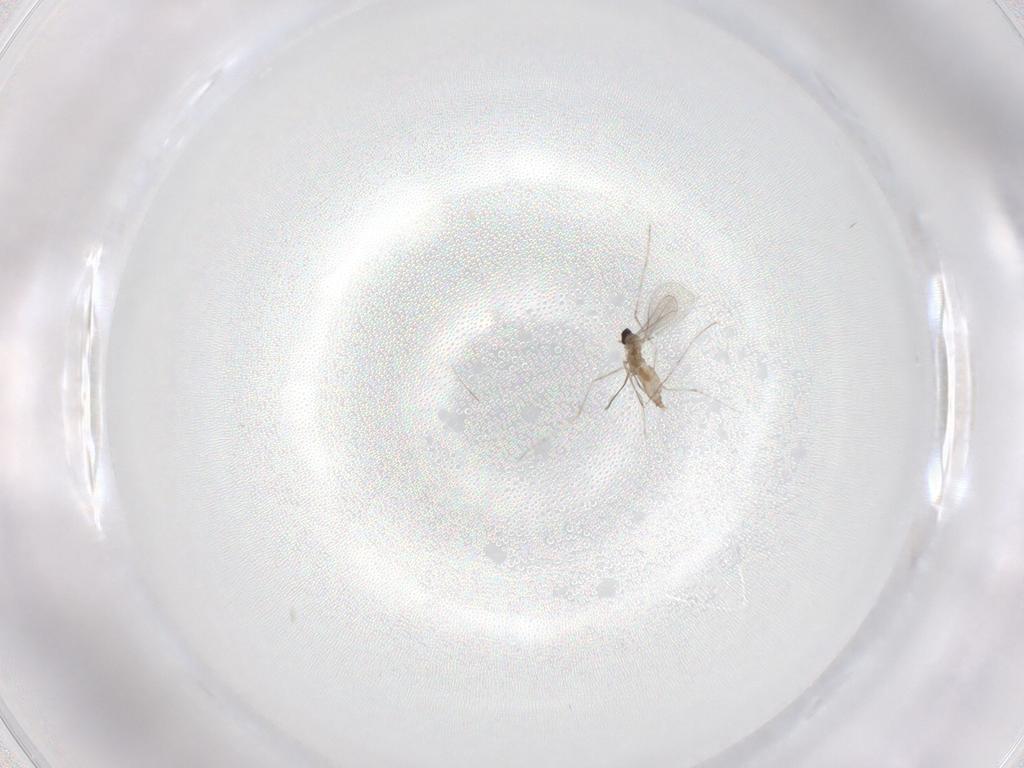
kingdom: Animalia
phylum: Arthropoda
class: Insecta
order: Diptera
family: Cecidomyiidae
